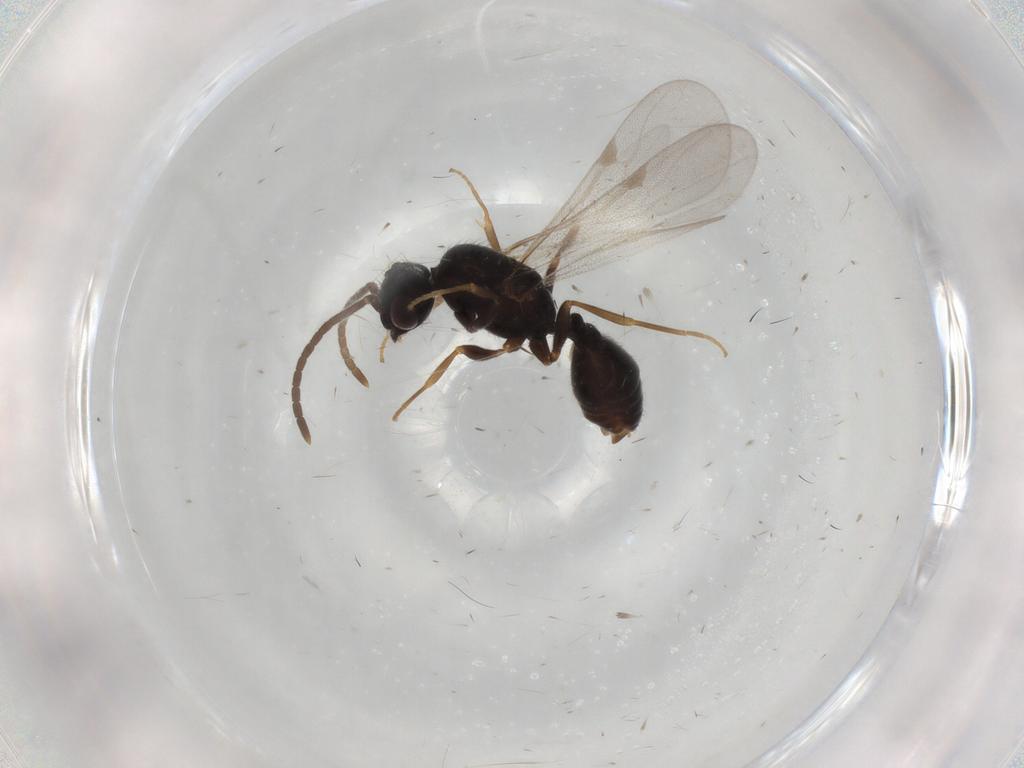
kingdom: Animalia
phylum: Arthropoda
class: Insecta
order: Hymenoptera
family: Formicidae
